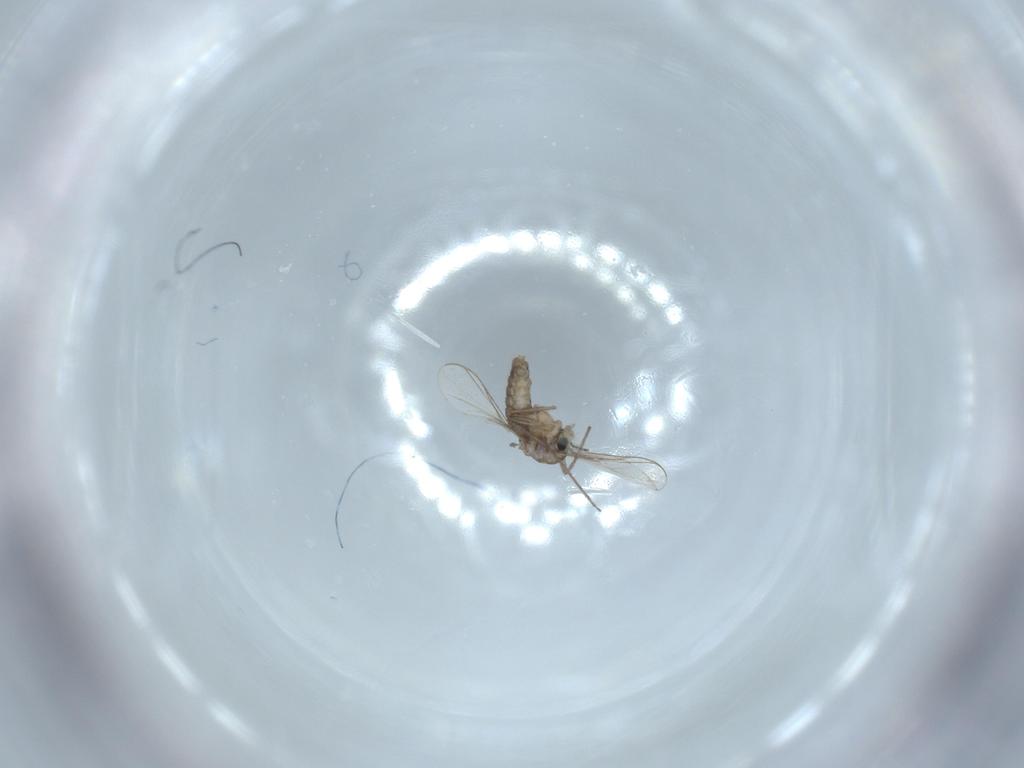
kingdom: Animalia
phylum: Arthropoda
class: Insecta
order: Diptera
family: Chironomidae
